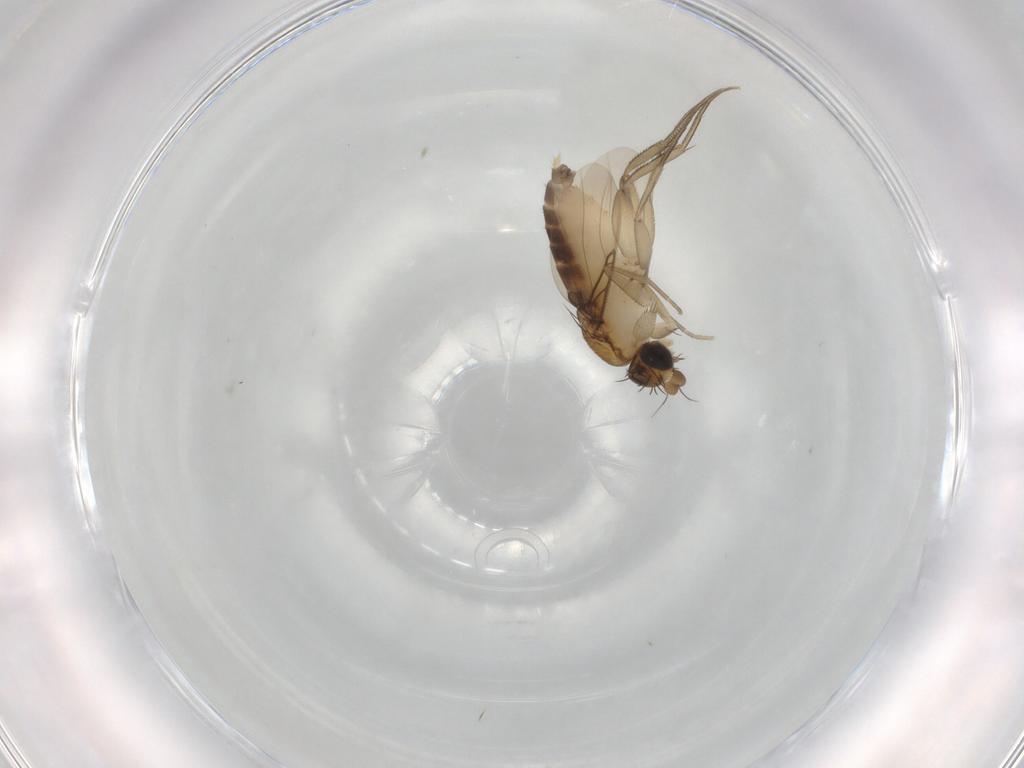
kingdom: Animalia
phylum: Arthropoda
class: Insecta
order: Diptera
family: Phoridae
